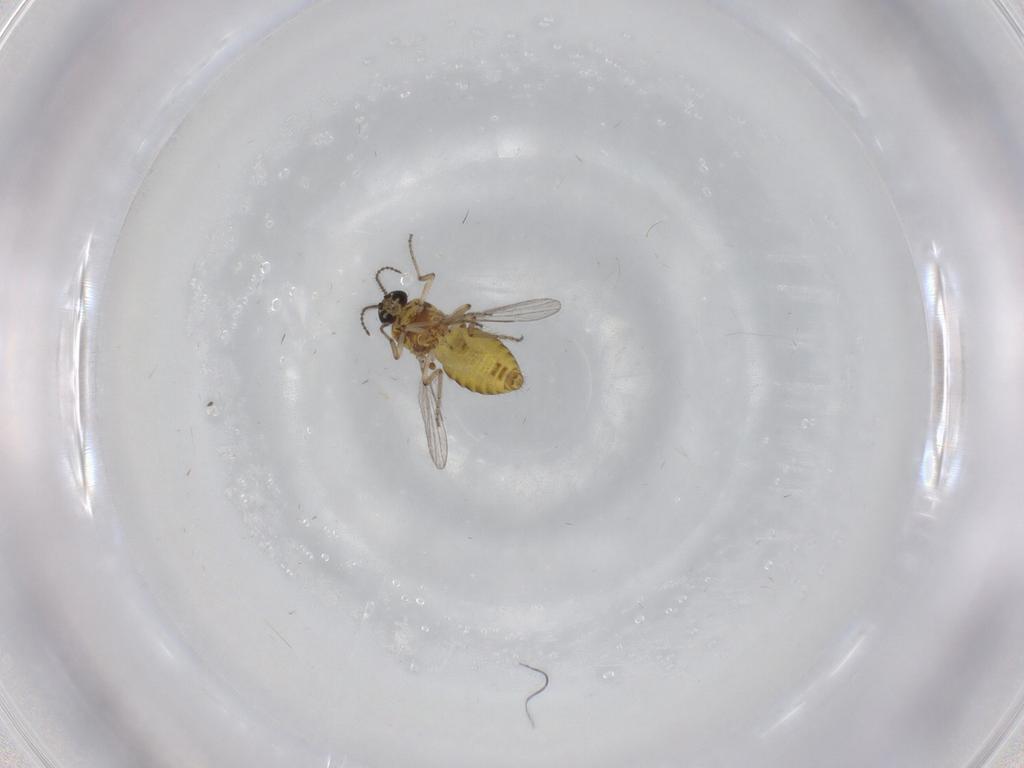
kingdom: Animalia
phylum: Arthropoda
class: Insecta
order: Diptera
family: Ceratopogonidae
